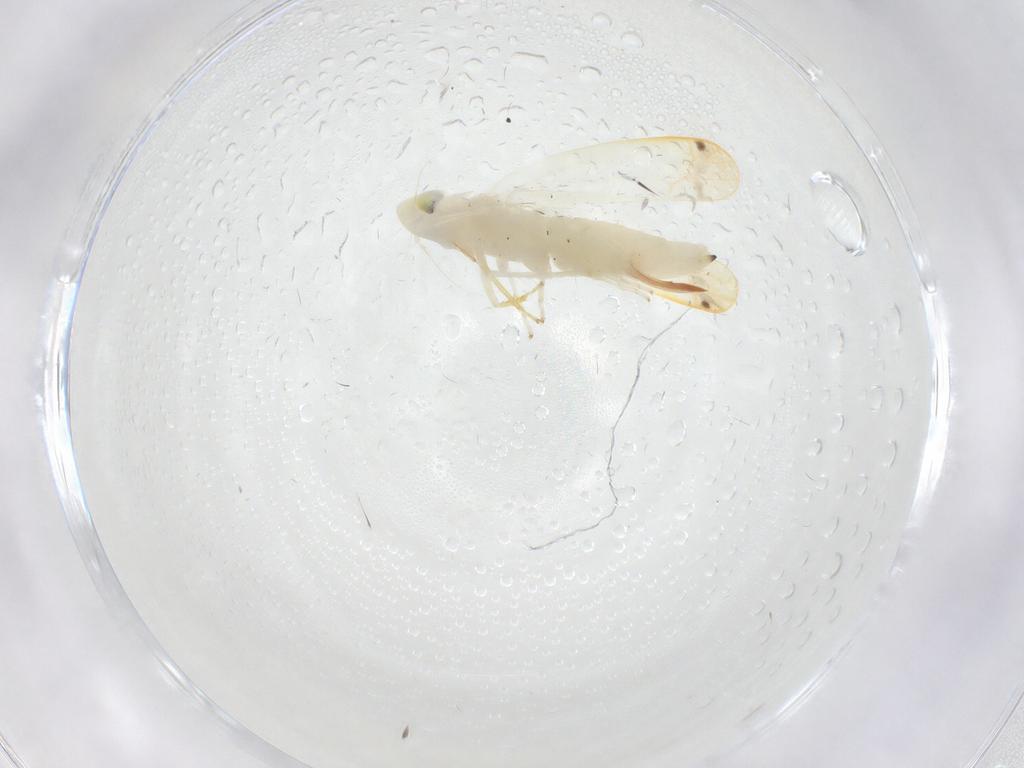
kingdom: Animalia
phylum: Arthropoda
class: Insecta
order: Hemiptera
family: Cicadellidae
